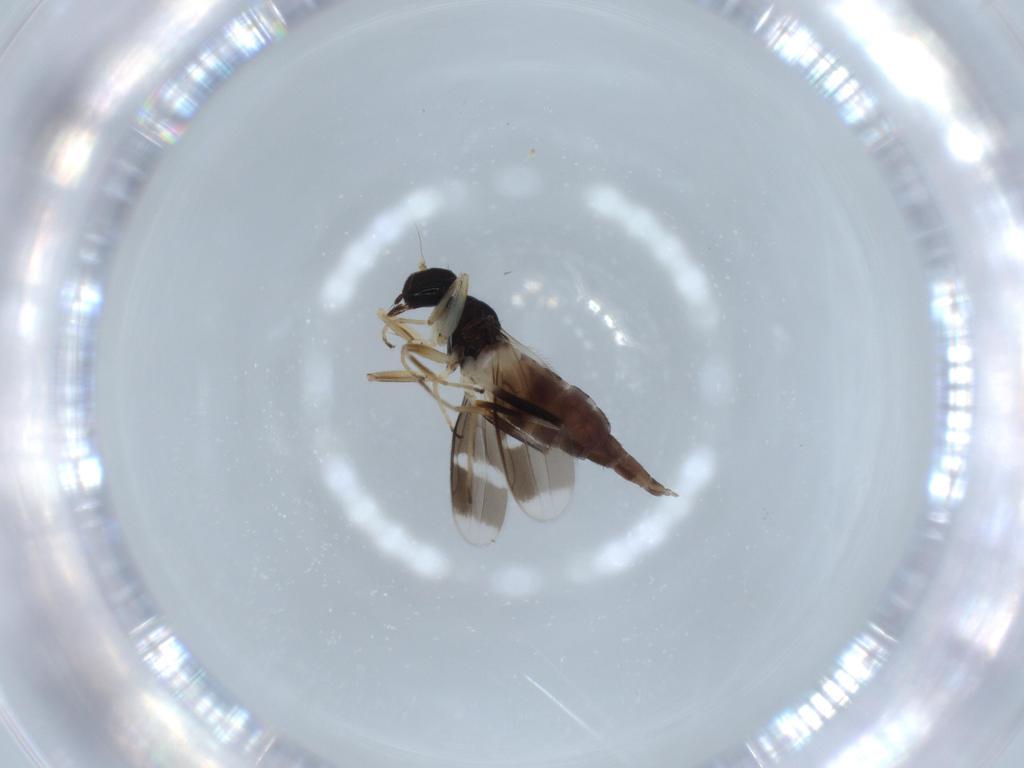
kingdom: Animalia
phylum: Arthropoda
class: Insecta
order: Diptera
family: Hybotidae
